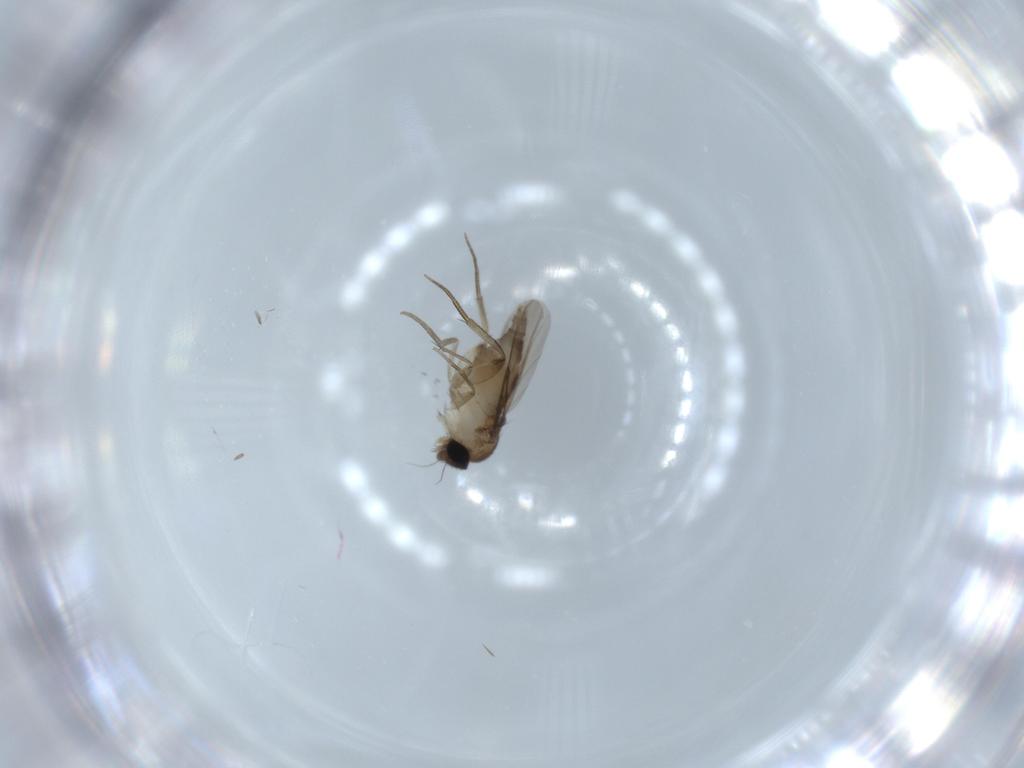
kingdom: Animalia
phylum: Arthropoda
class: Insecta
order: Diptera
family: Phoridae
